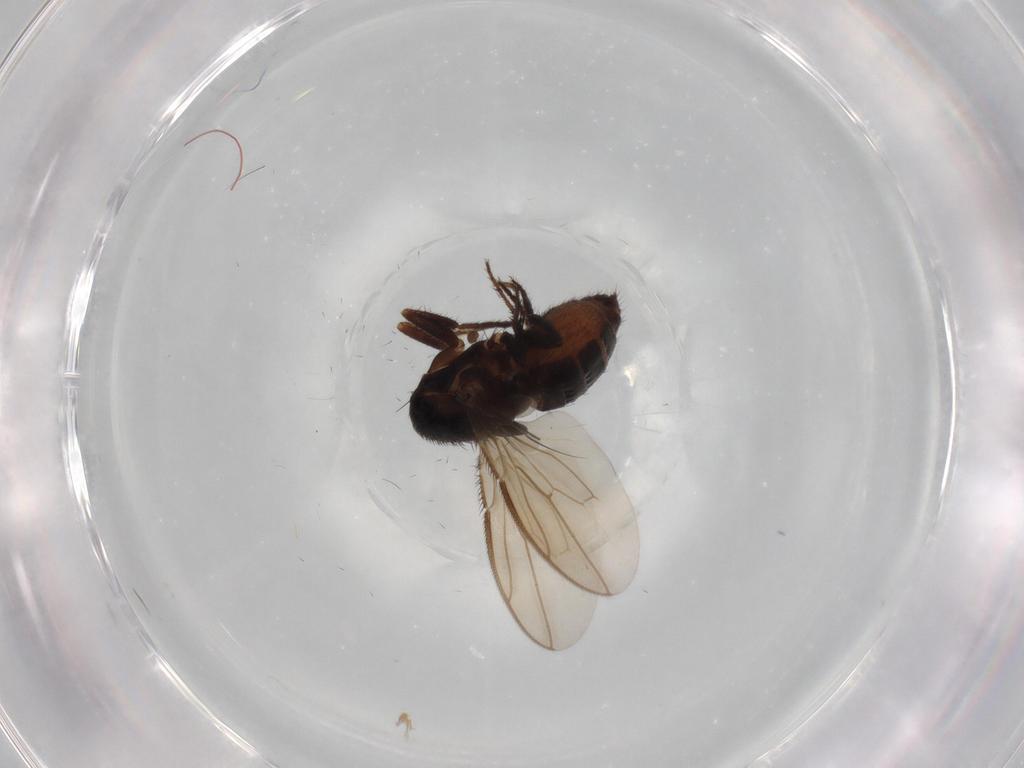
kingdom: Animalia
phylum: Arthropoda
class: Insecta
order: Diptera
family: Sphaeroceridae
